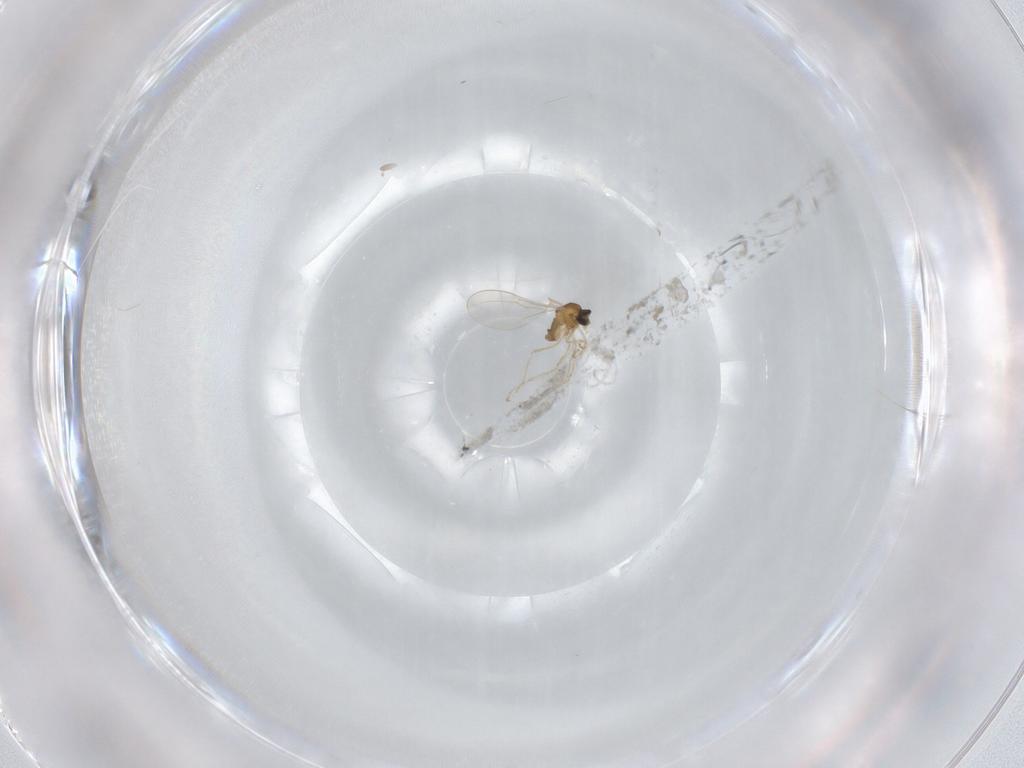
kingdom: Animalia
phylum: Arthropoda
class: Insecta
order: Diptera
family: Cecidomyiidae
